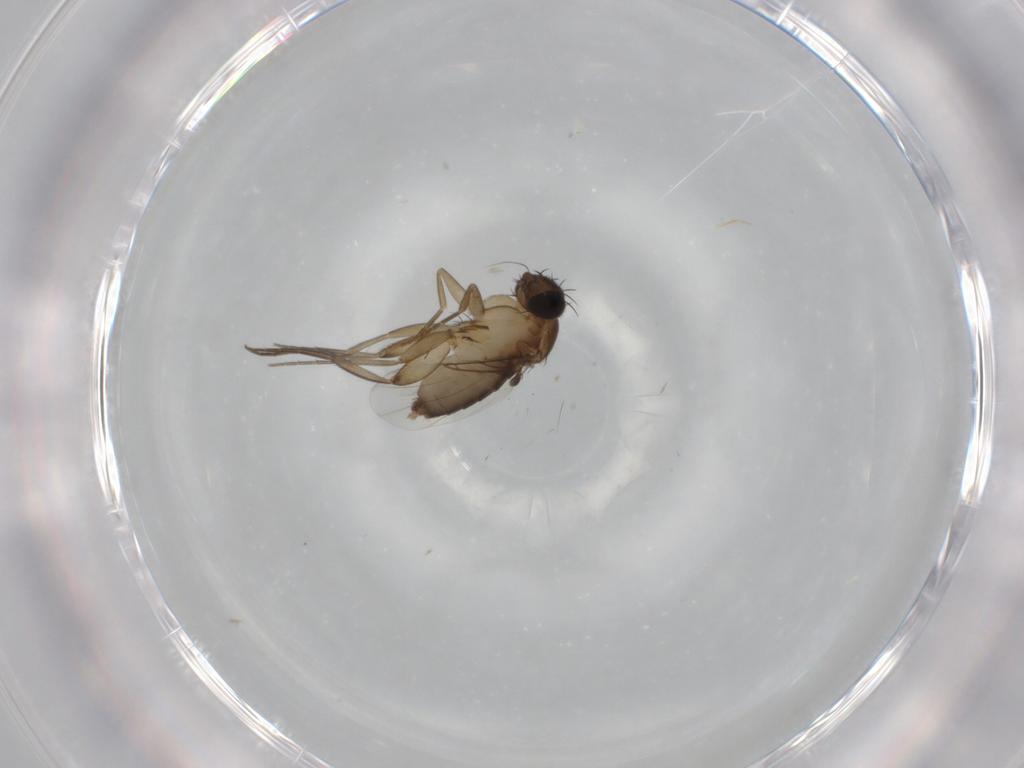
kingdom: Animalia
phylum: Arthropoda
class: Insecta
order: Diptera
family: Phoridae
